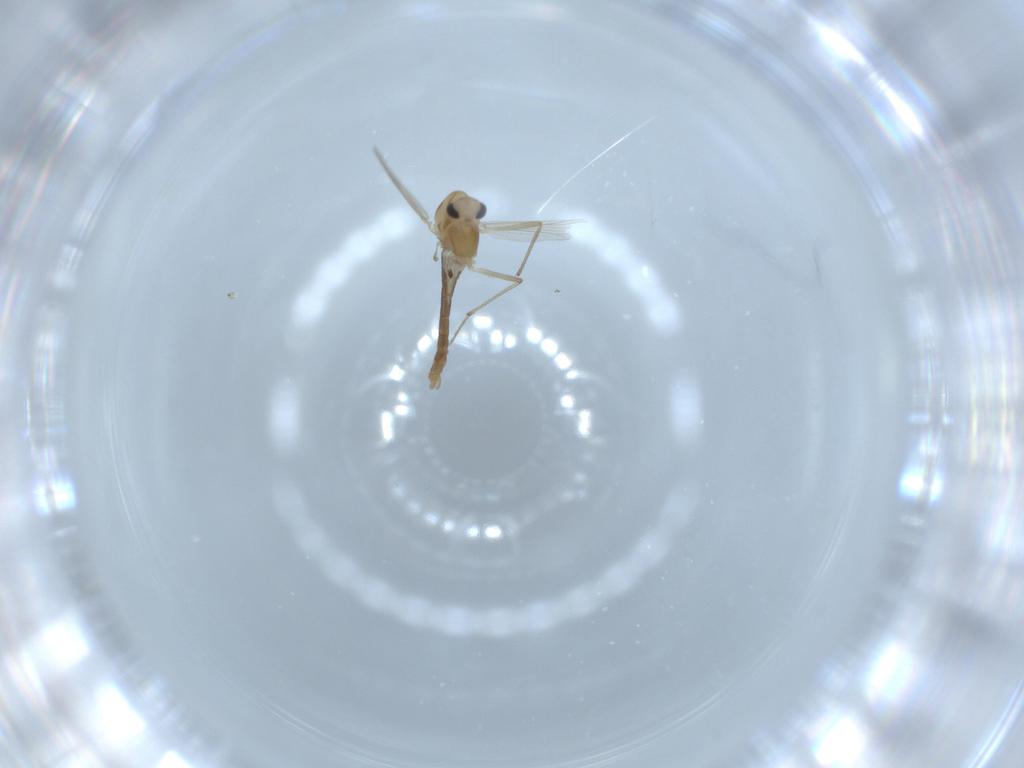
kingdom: Animalia
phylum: Arthropoda
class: Insecta
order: Diptera
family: Chironomidae
